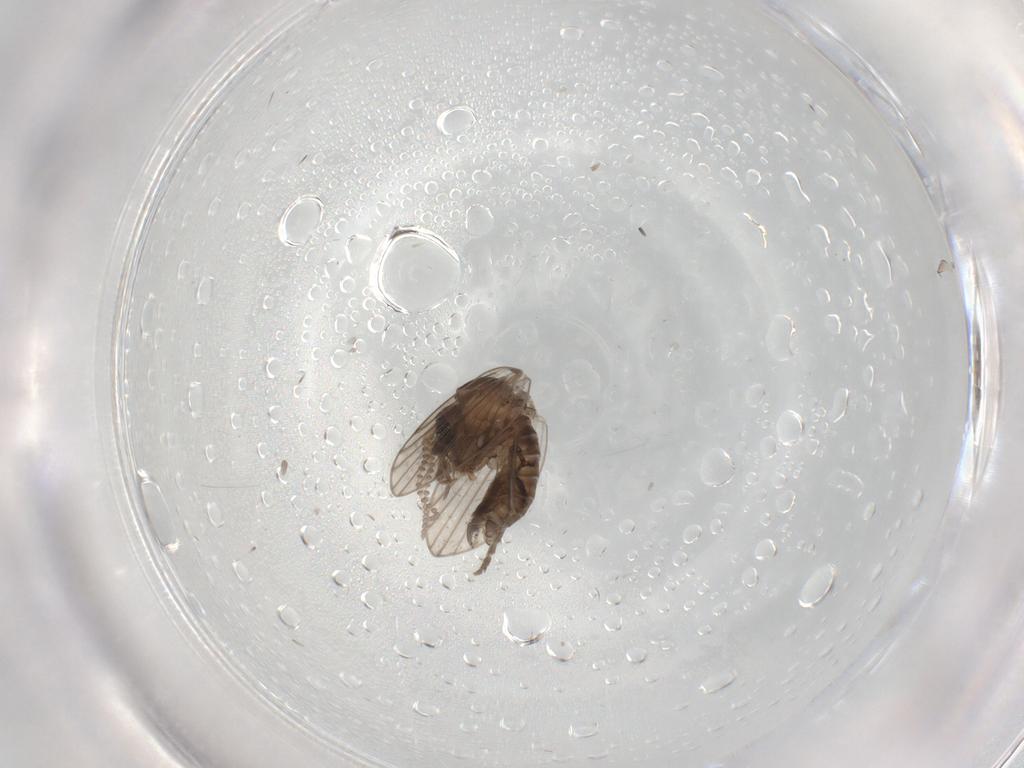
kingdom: Animalia
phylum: Arthropoda
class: Insecta
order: Diptera
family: Psychodidae
